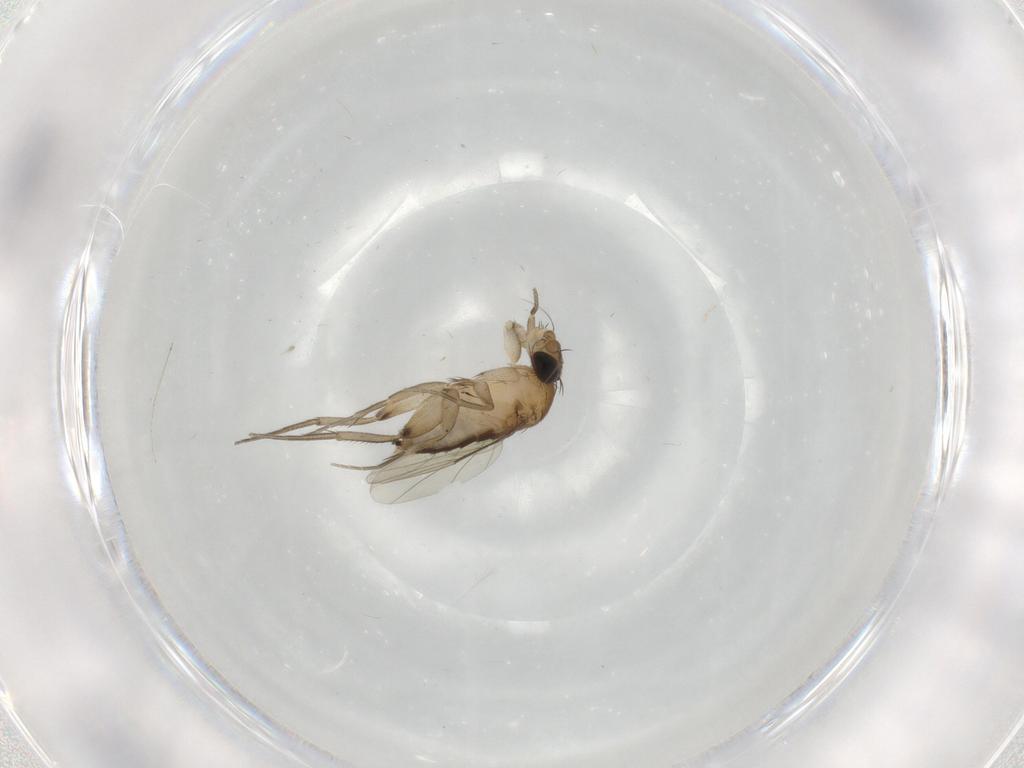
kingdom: Animalia
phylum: Arthropoda
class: Insecta
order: Diptera
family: Phoridae
